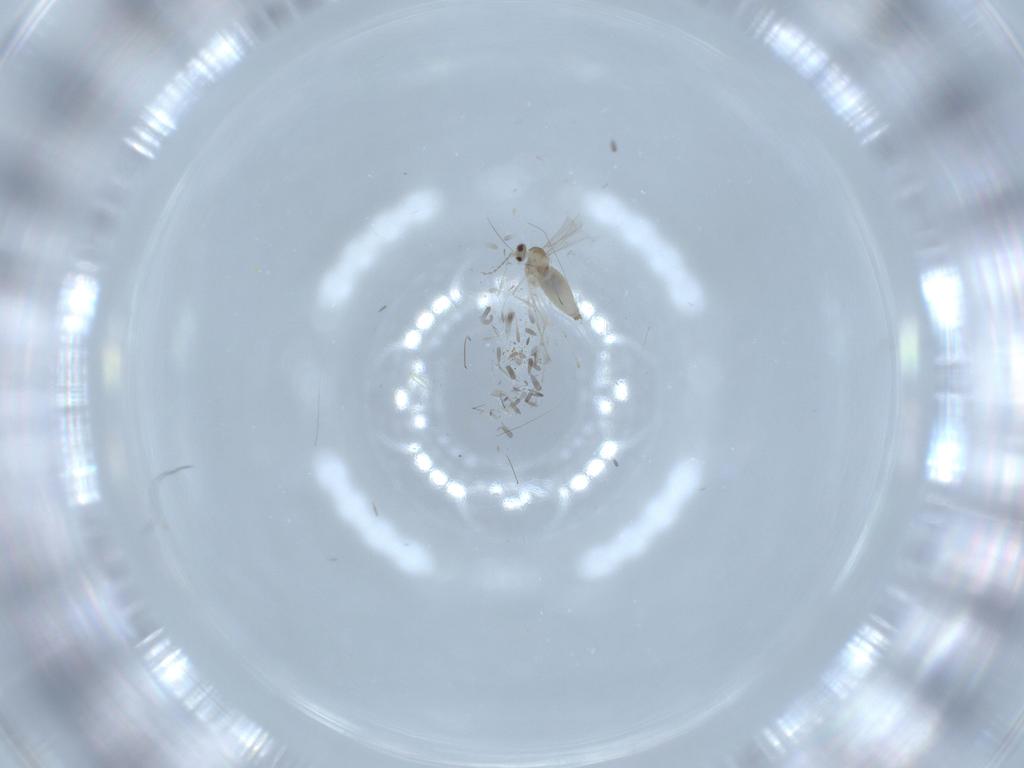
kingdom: Animalia
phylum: Arthropoda
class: Insecta
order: Diptera
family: Cecidomyiidae
